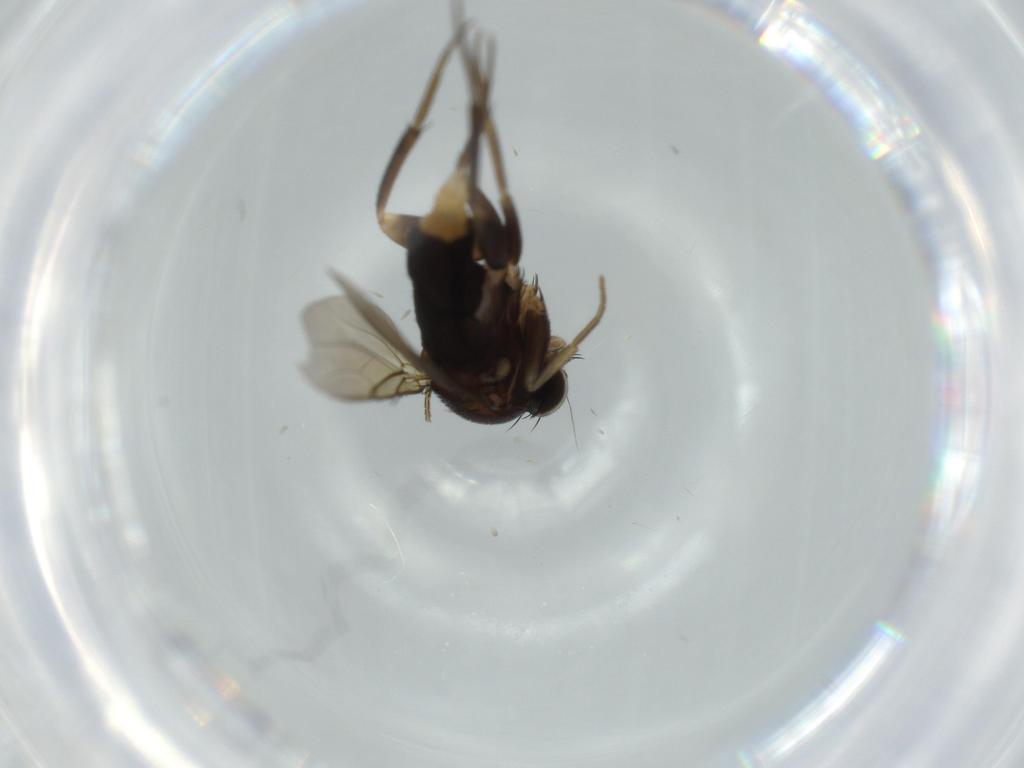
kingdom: Animalia
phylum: Arthropoda
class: Insecta
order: Diptera
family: Phoridae
